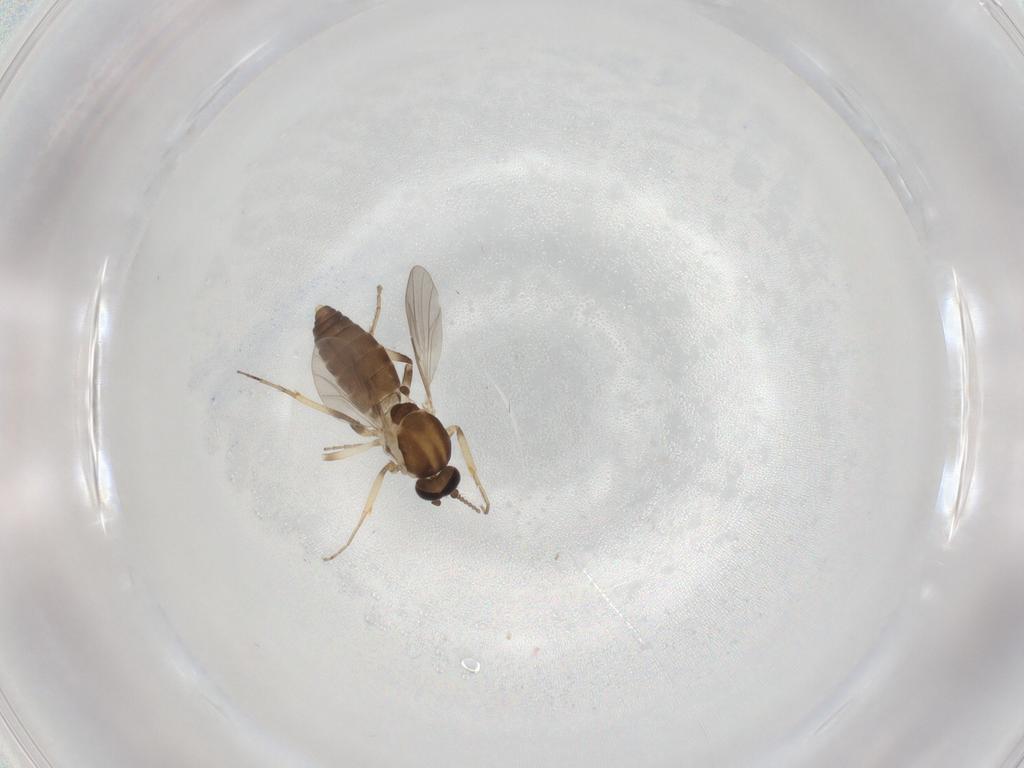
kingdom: Animalia
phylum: Arthropoda
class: Insecta
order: Diptera
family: Ceratopogonidae
